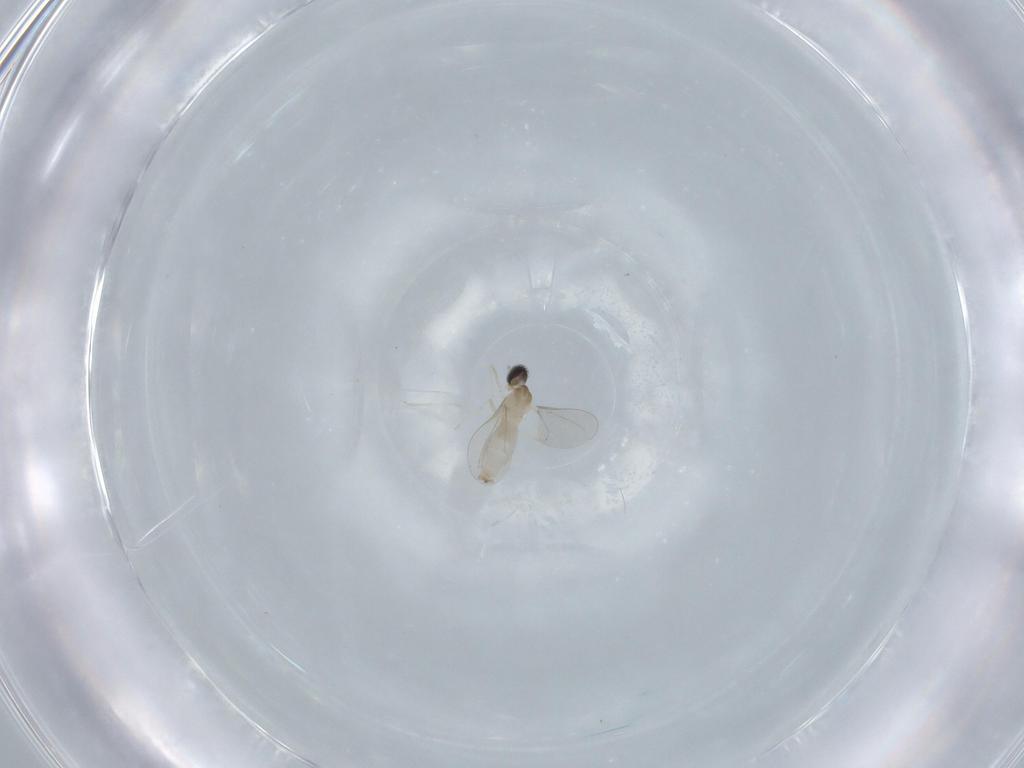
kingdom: Animalia
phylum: Arthropoda
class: Insecta
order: Diptera
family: Cecidomyiidae
